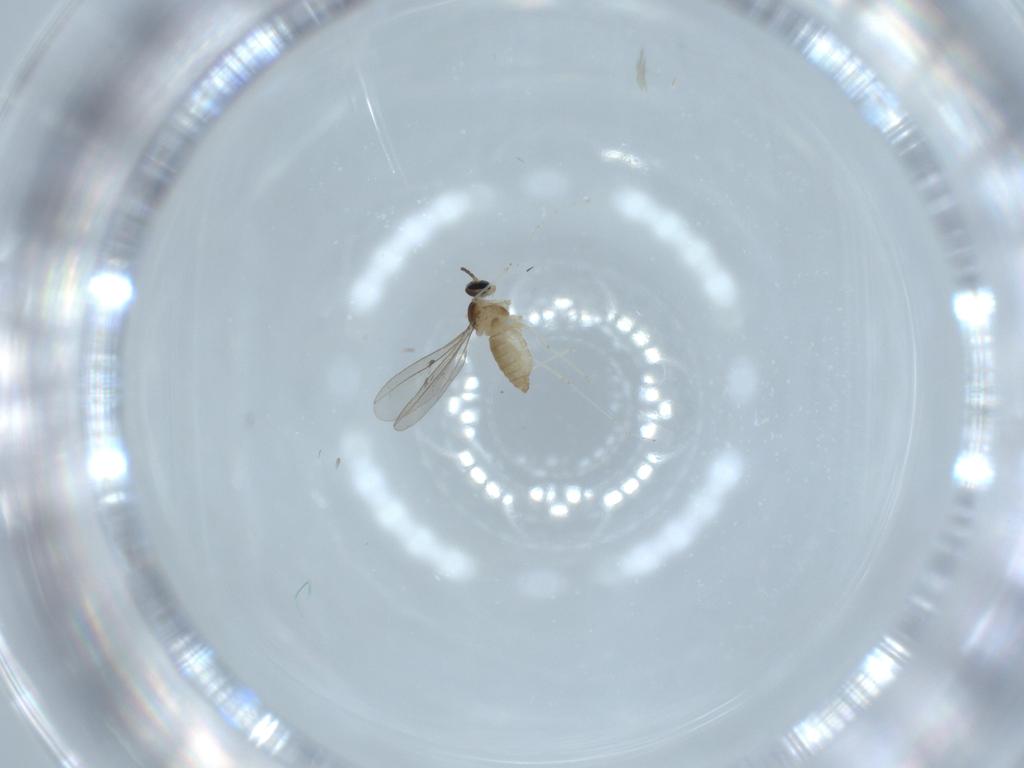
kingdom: Animalia
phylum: Arthropoda
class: Insecta
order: Diptera
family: Cecidomyiidae
